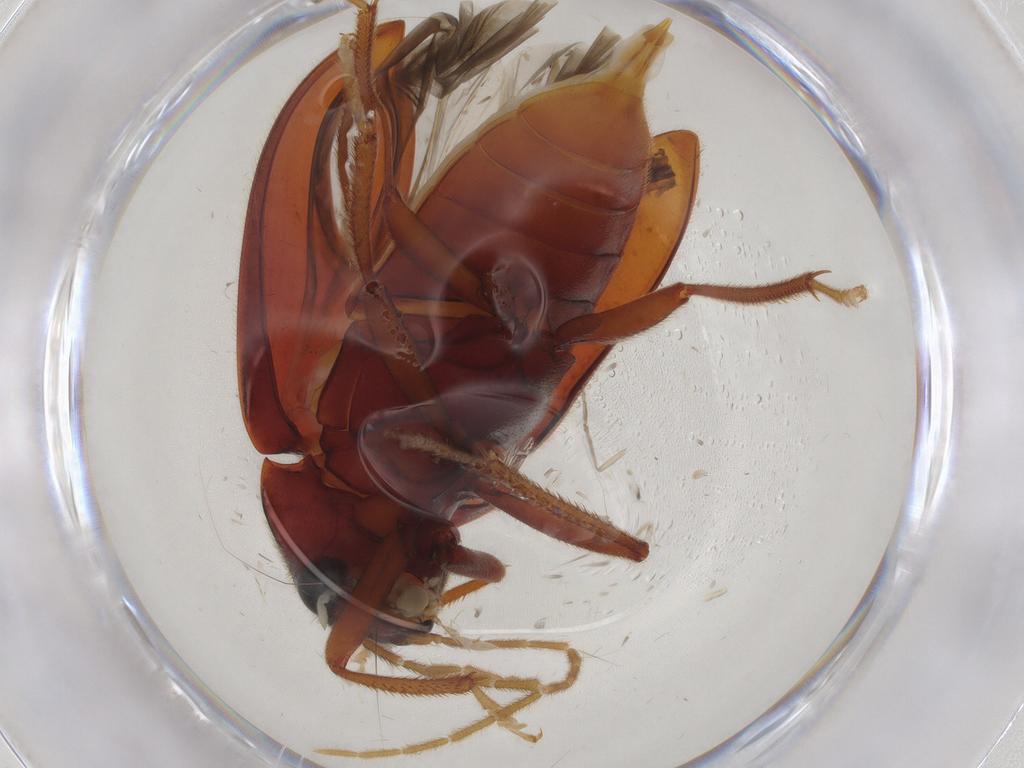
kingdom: Animalia
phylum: Arthropoda
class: Insecta
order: Coleoptera
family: Ptilodactylidae
